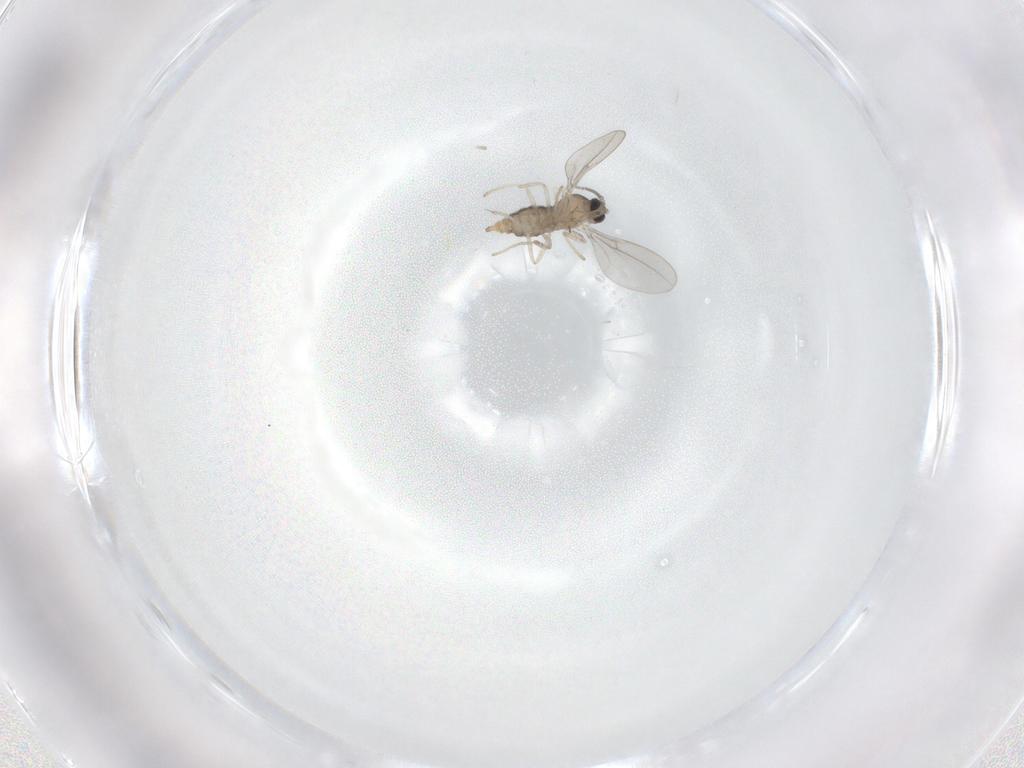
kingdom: Animalia
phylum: Arthropoda
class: Insecta
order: Diptera
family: Cecidomyiidae
